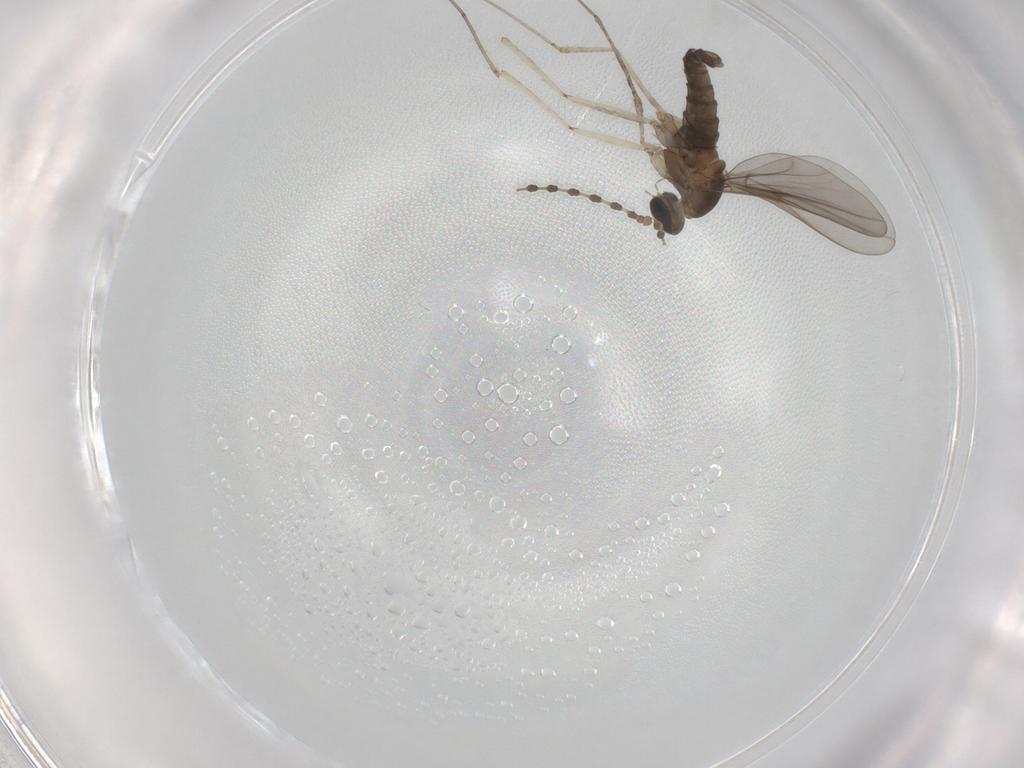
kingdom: Animalia
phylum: Arthropoda
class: Insecta
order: Diptera
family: Cecidomyiidae
